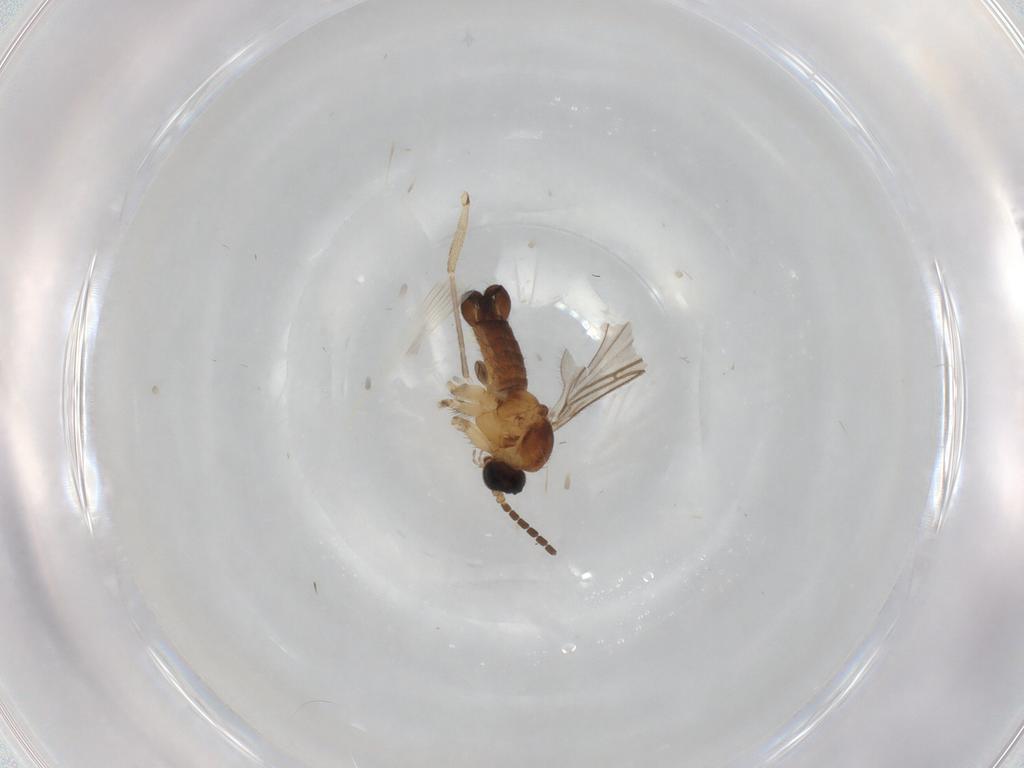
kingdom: Animalia
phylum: Arthropoda
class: Insecta
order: Diptera
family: Sciaridae
